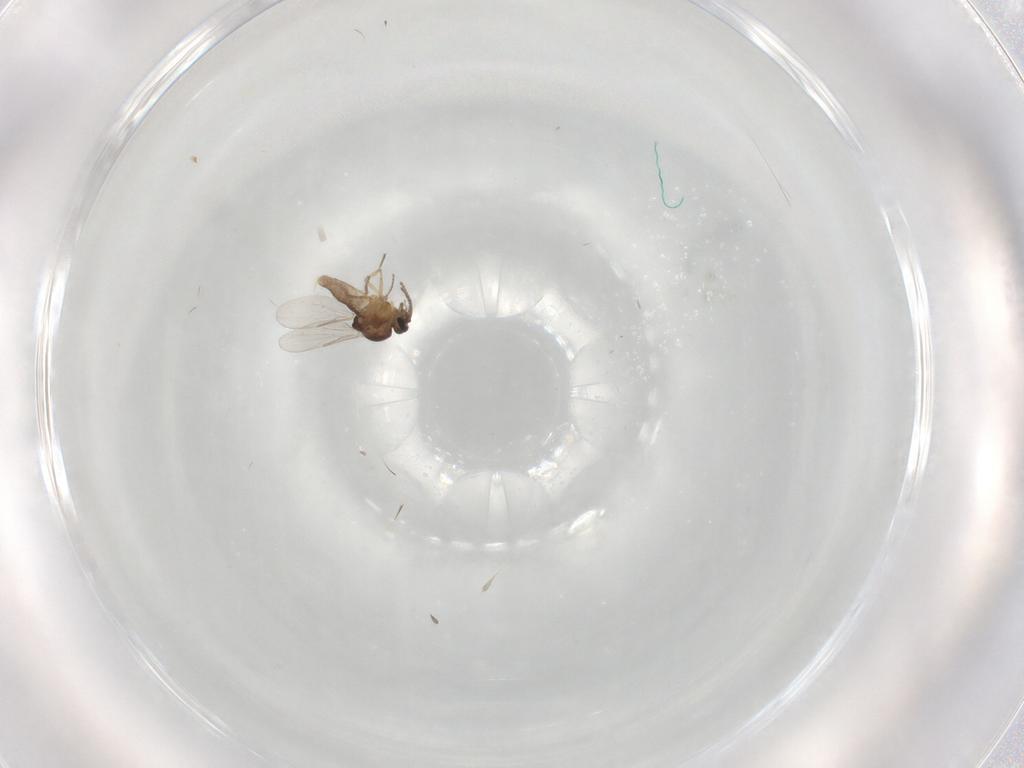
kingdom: Animalia
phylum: Arthropoda
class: Insecta
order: Diptera
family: Ceratopogonidae
